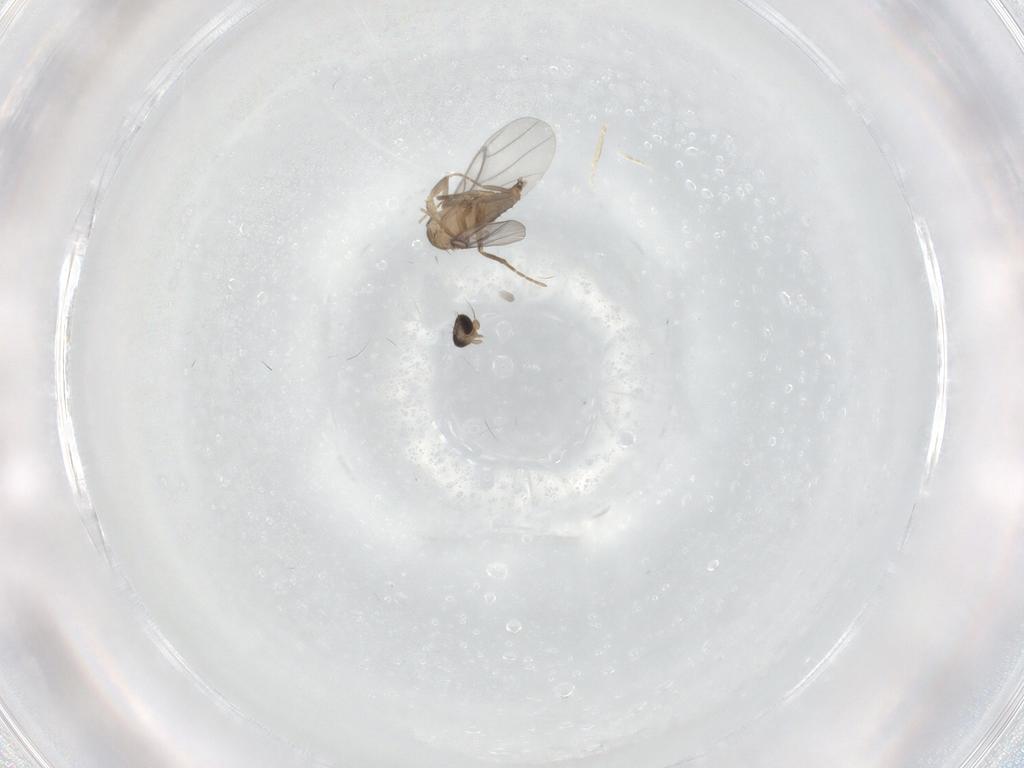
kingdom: Animalia
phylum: Arthropoda
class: Insecta
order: Diptera
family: Cecidomyiidae
